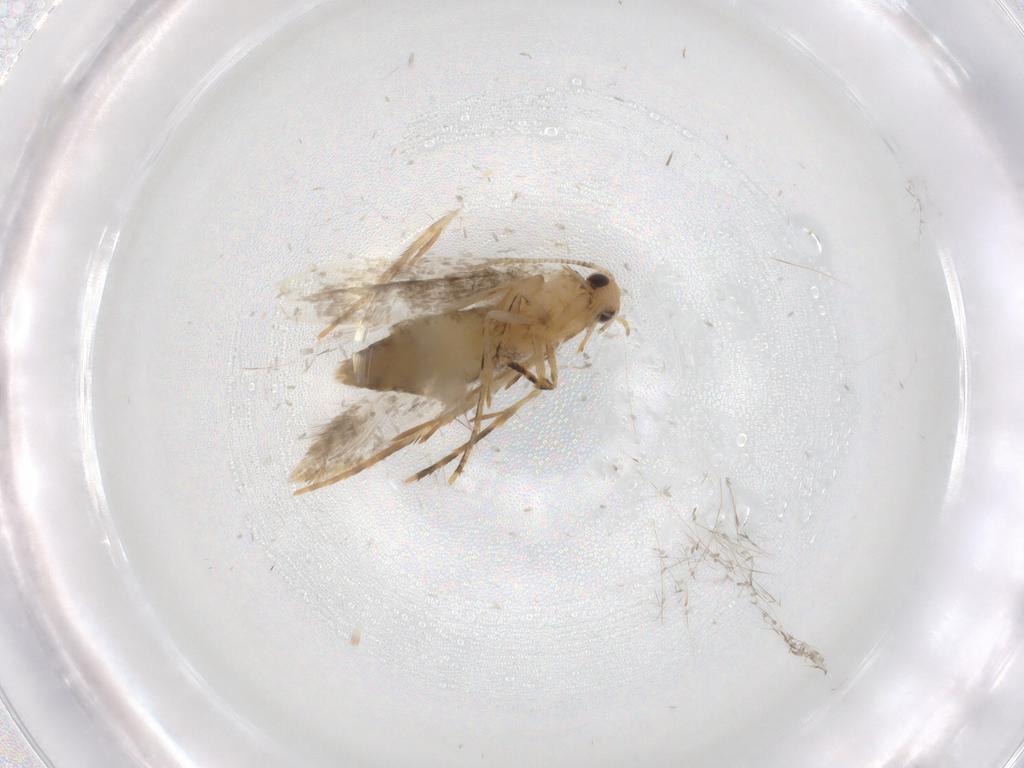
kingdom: Animalia
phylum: Arthropoda
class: Insecta
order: Lepidoptera
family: Tineidae
